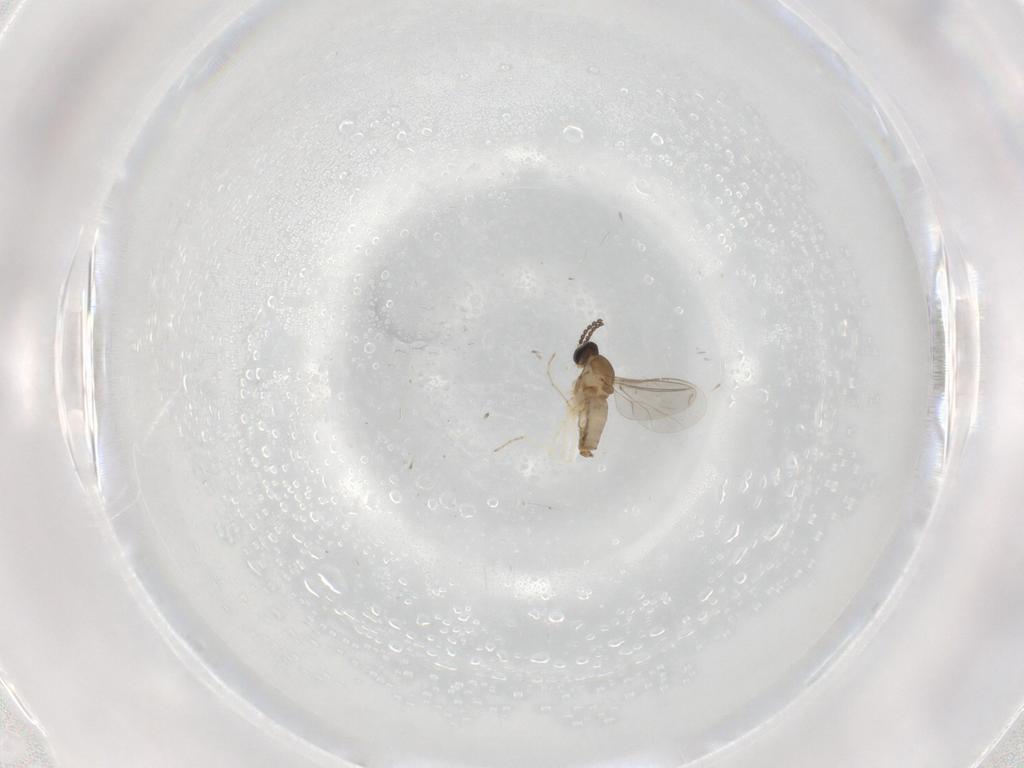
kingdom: Animalia
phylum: Arthropoda
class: Insecta
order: Diptera
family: Cecidomyiidae
